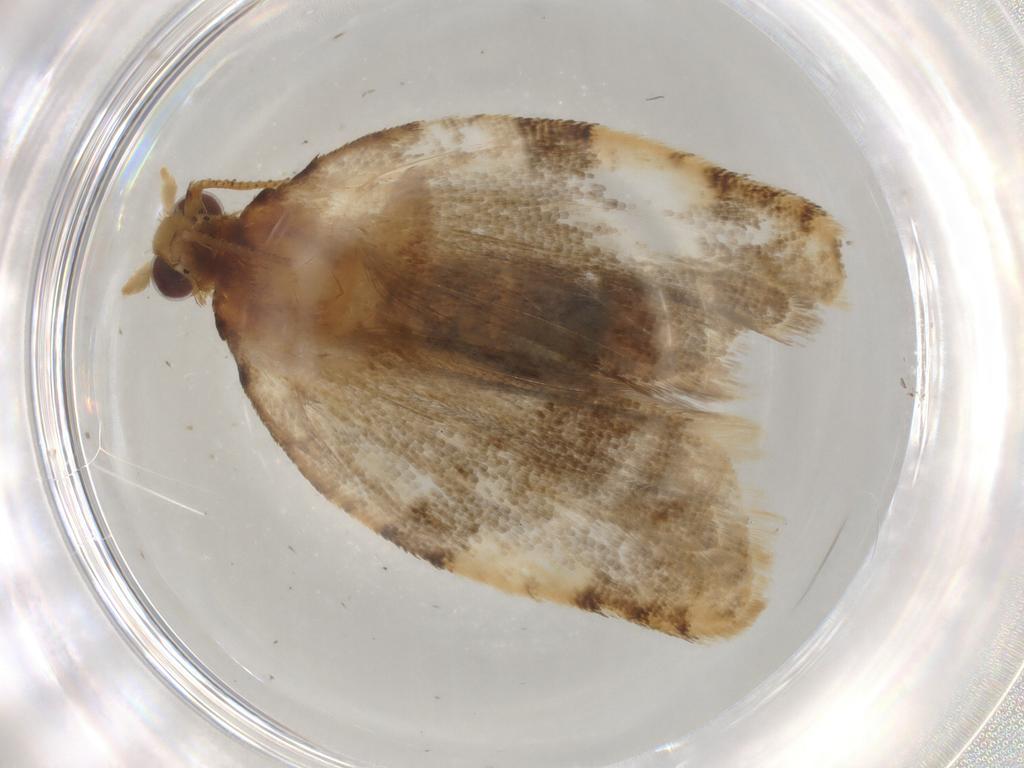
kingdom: Animalia
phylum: Arthropoda
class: Insecta
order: Lepidoptera
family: Tortricidae
